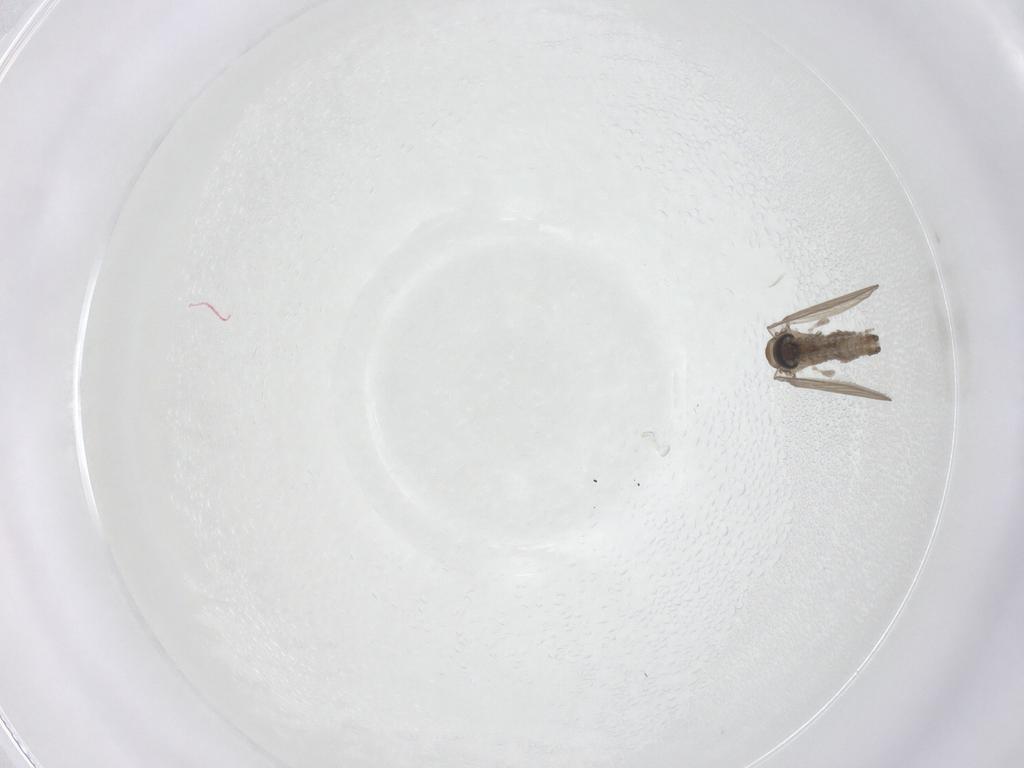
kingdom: Animalia
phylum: Arthropoda
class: Insecta
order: Diptera
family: Psychodidae
